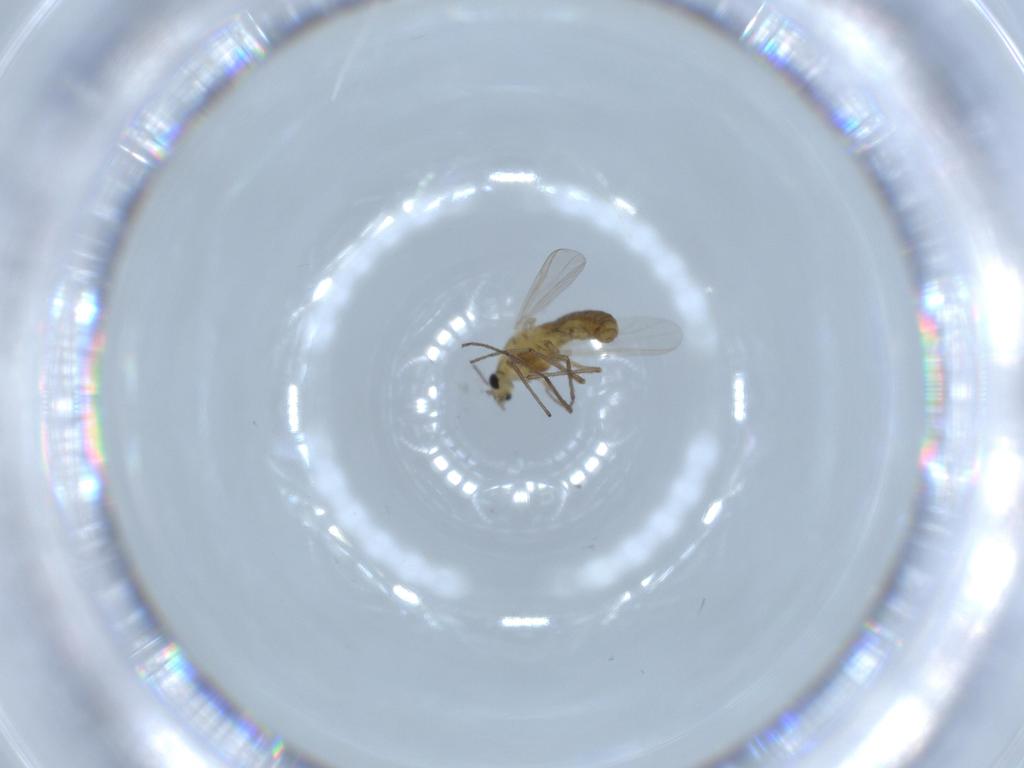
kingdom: Animalia
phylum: Arthropoda
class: Insecta
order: Diptera
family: Chironomidae
